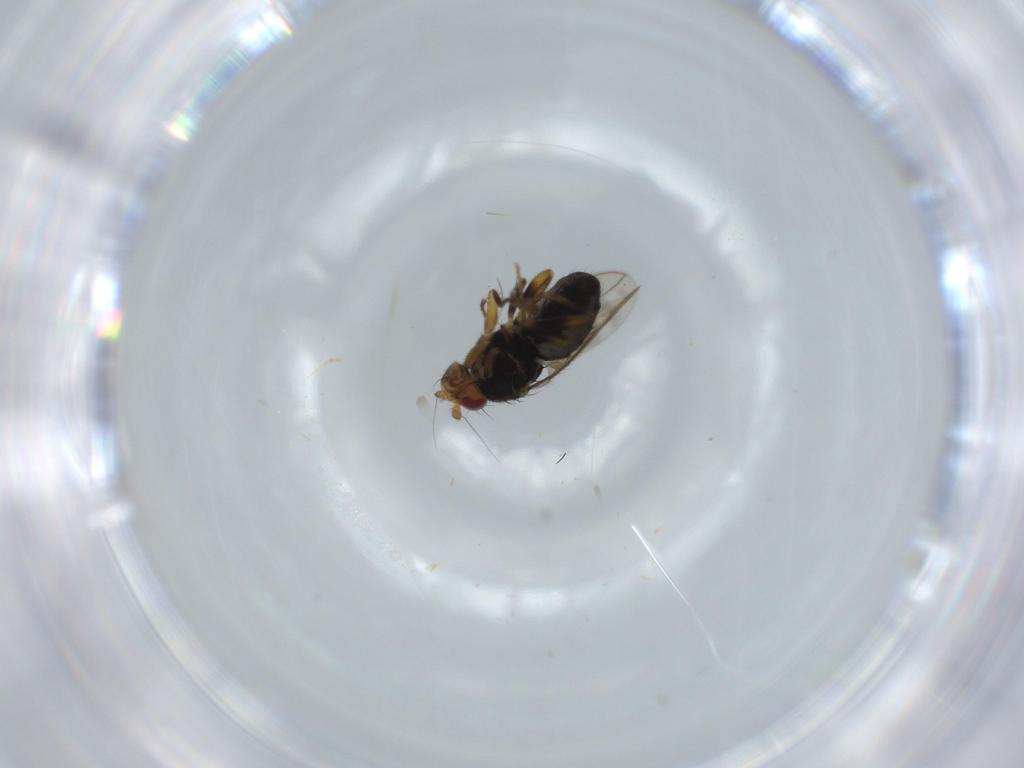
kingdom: Animalia
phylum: Arthropoda
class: Insecta
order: Diptera
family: Sphaeroceridae
